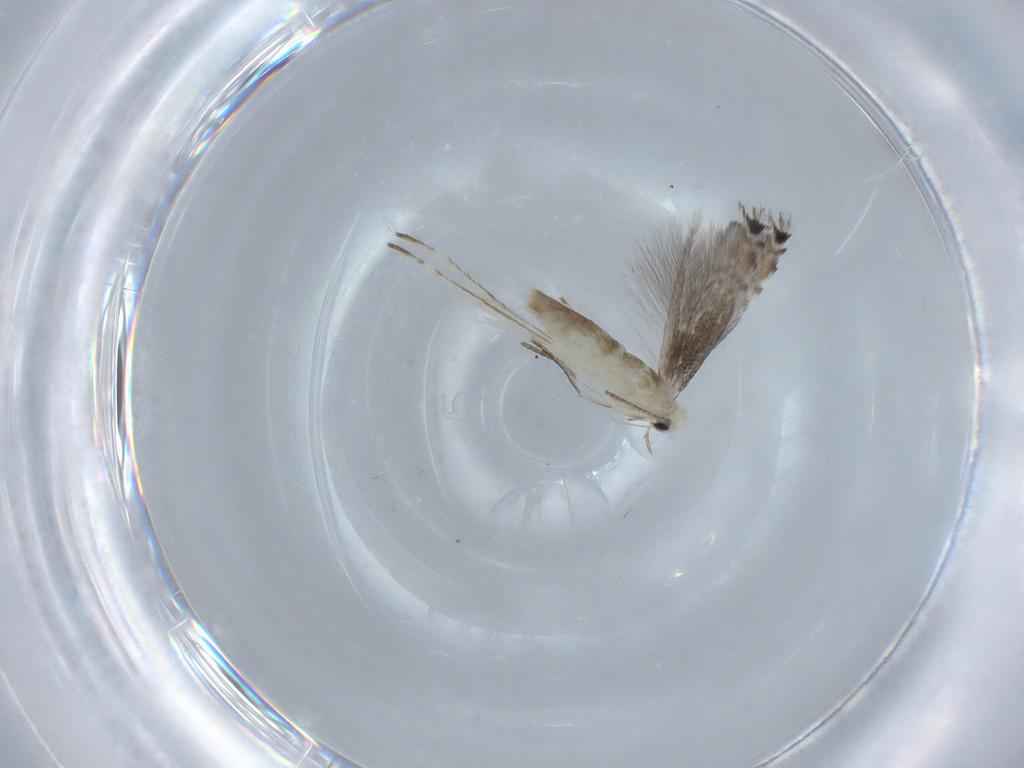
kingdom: Animalia
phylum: Arthropoda
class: Insecta
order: Lepidoptera
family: Gracillariidae
